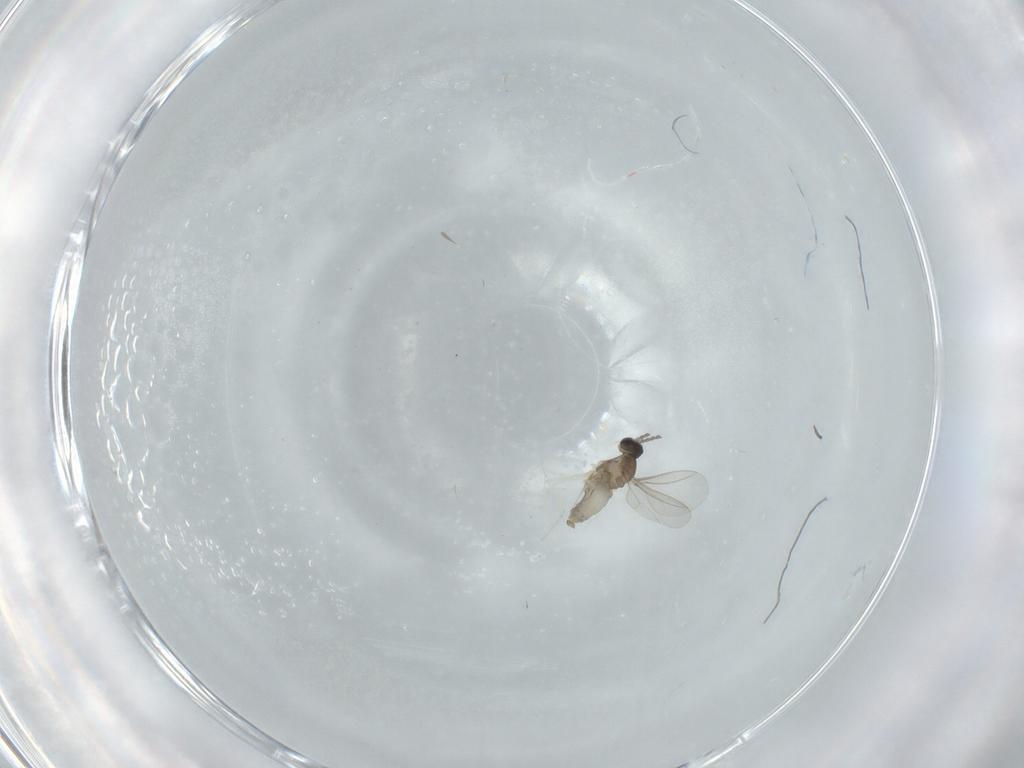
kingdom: Animalia
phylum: Arthropoda
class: Insecta
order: Diptera
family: Cecidomyiidae
